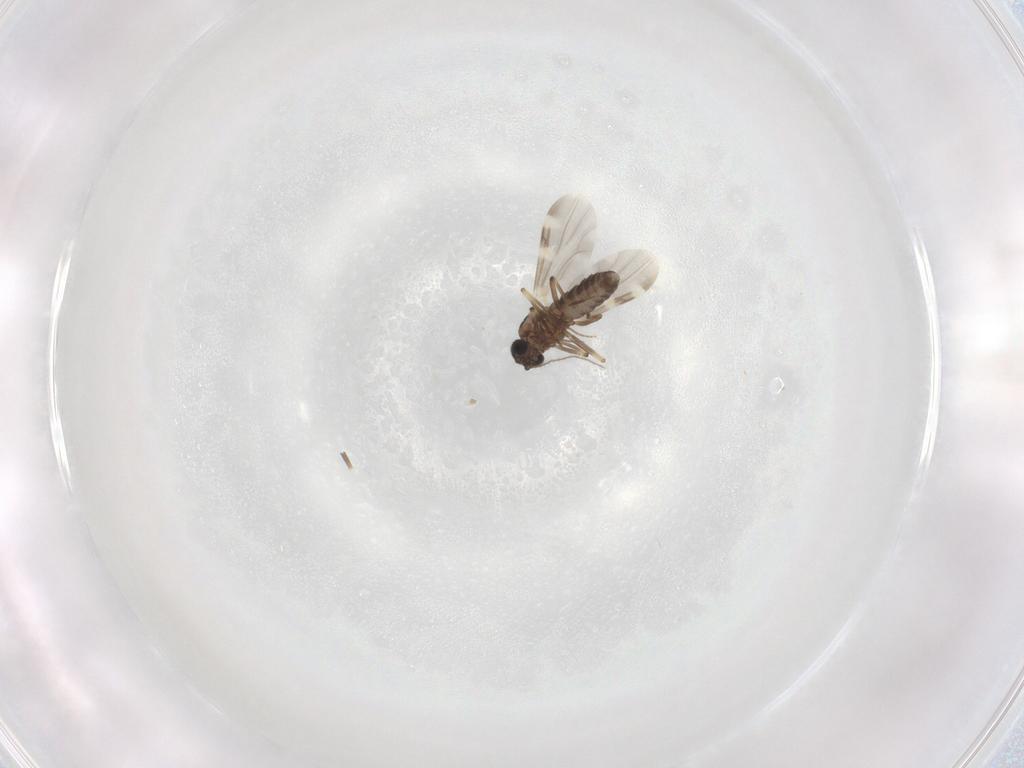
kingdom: Animalia
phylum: Arthropoda
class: Insecta
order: Diptera
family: Ceratopogonidae
